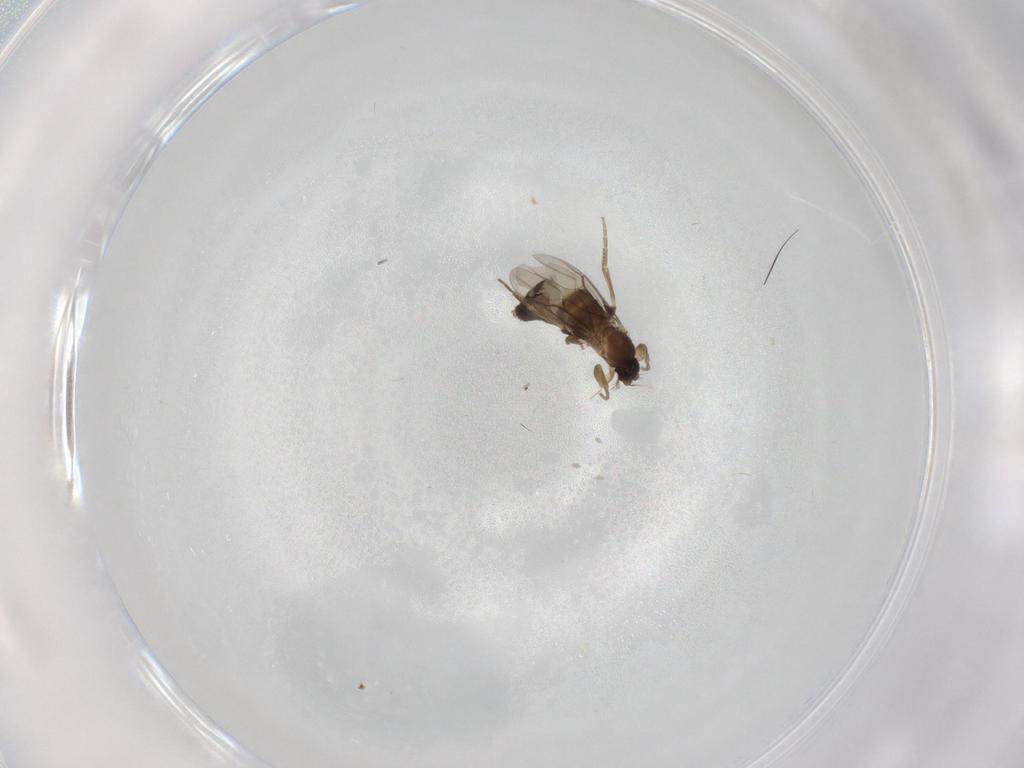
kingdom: Animalia
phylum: Arthropoda
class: Insecta
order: Diptera
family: Phoridae
